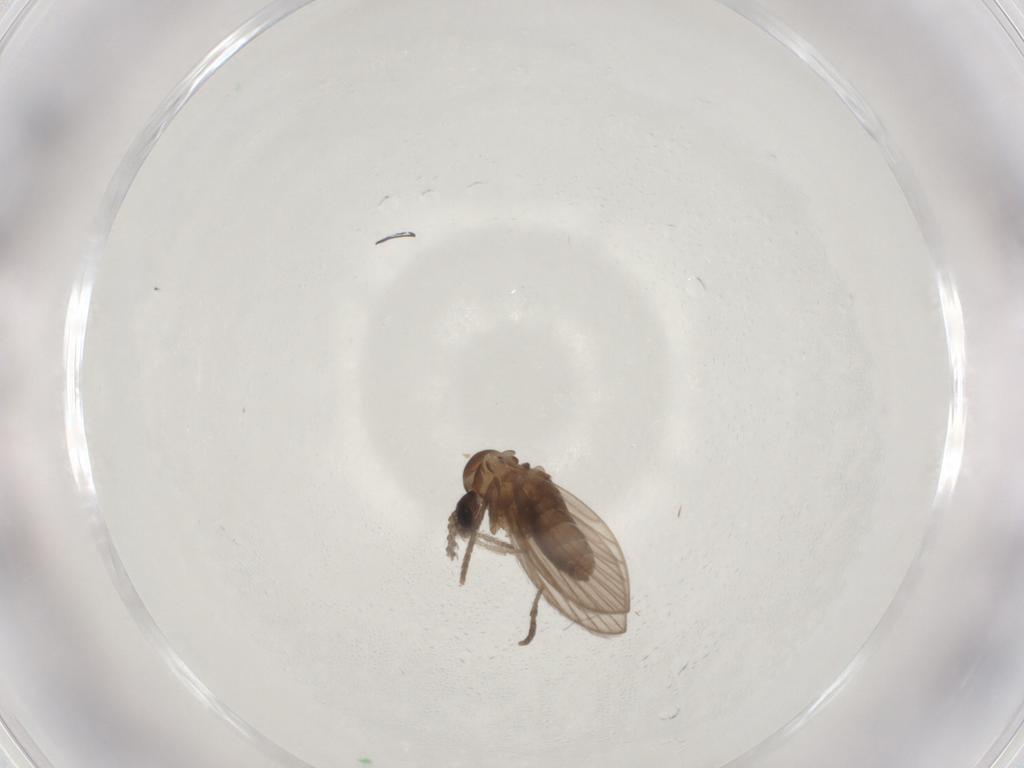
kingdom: Animalia
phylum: Arthropoda
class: Insecta
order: Diptera
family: Psychodidae
